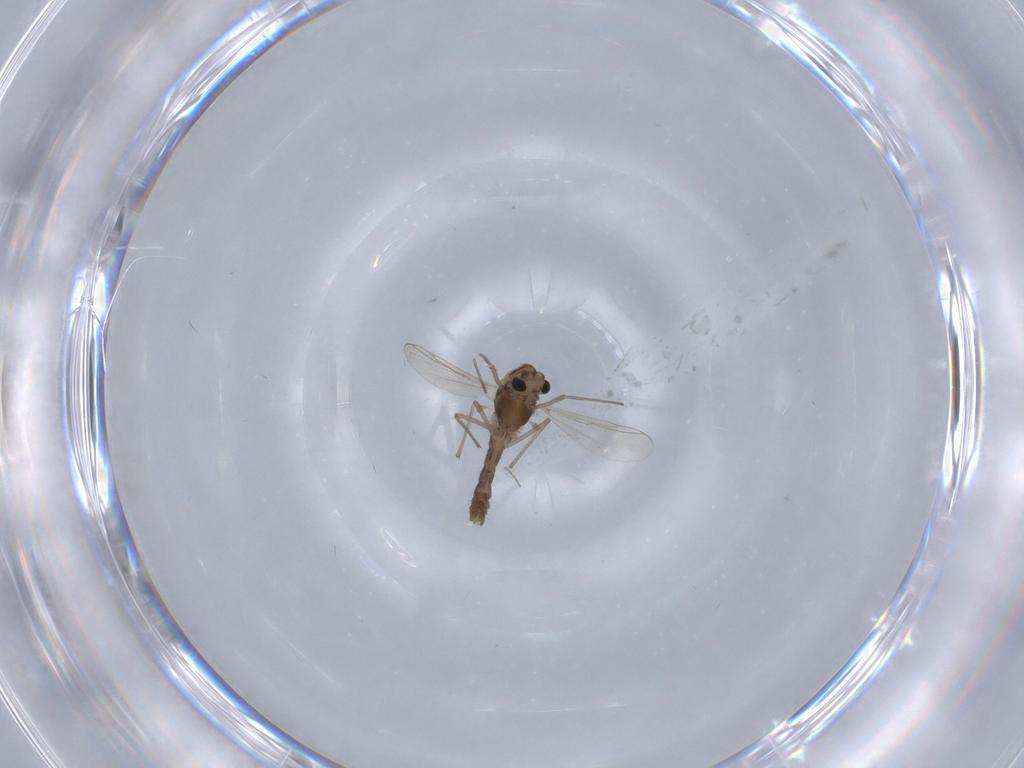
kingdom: Animalia
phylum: Arthropoda
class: Insecta
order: Diptera
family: Chironomidae
